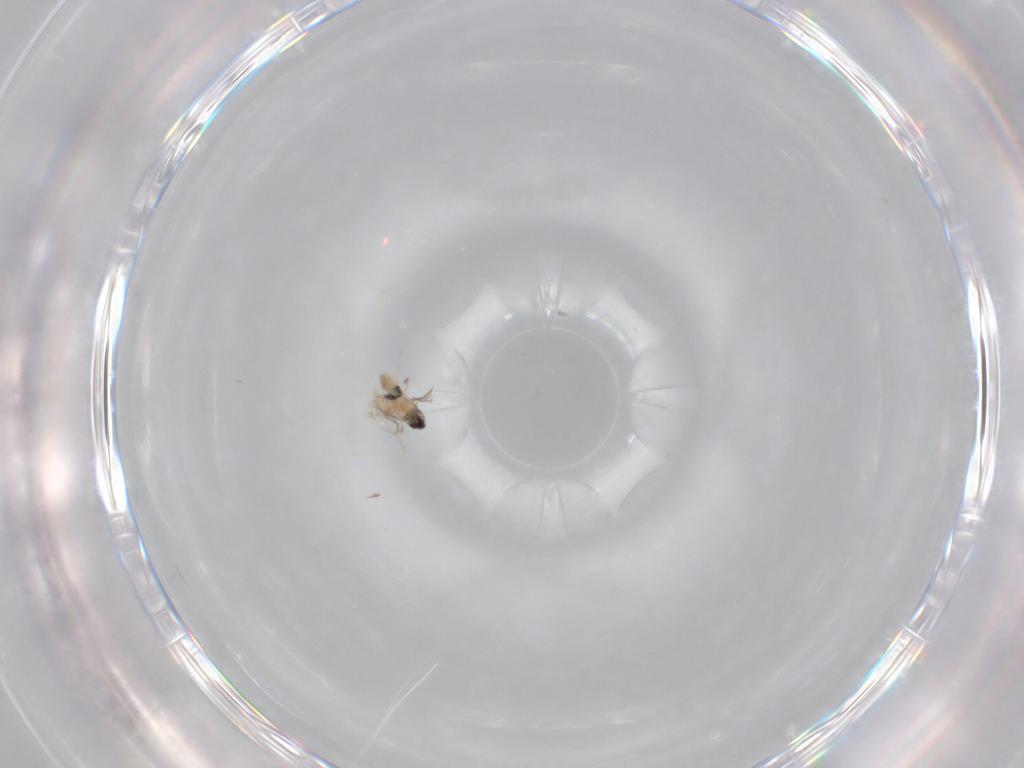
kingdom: Animalia
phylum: Arthropoda
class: Insecta
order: Diptera
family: Cecidomyiidae
